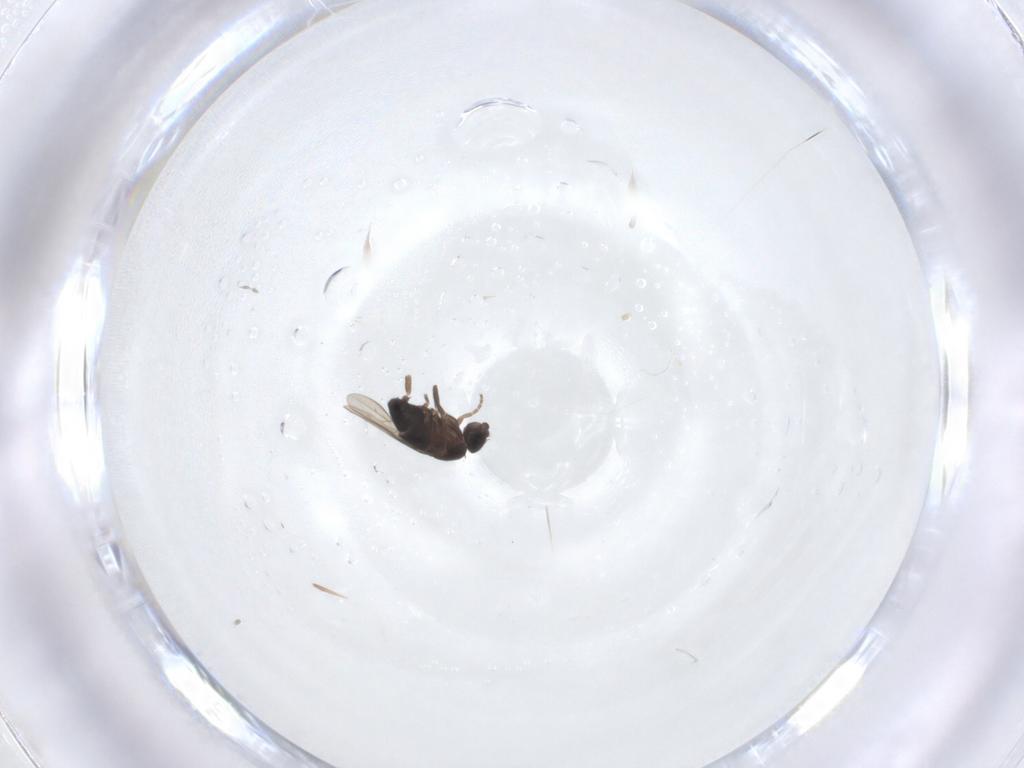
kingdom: Animalia
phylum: Arthropoda
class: Insecta
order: Diptera
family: Phoridae
